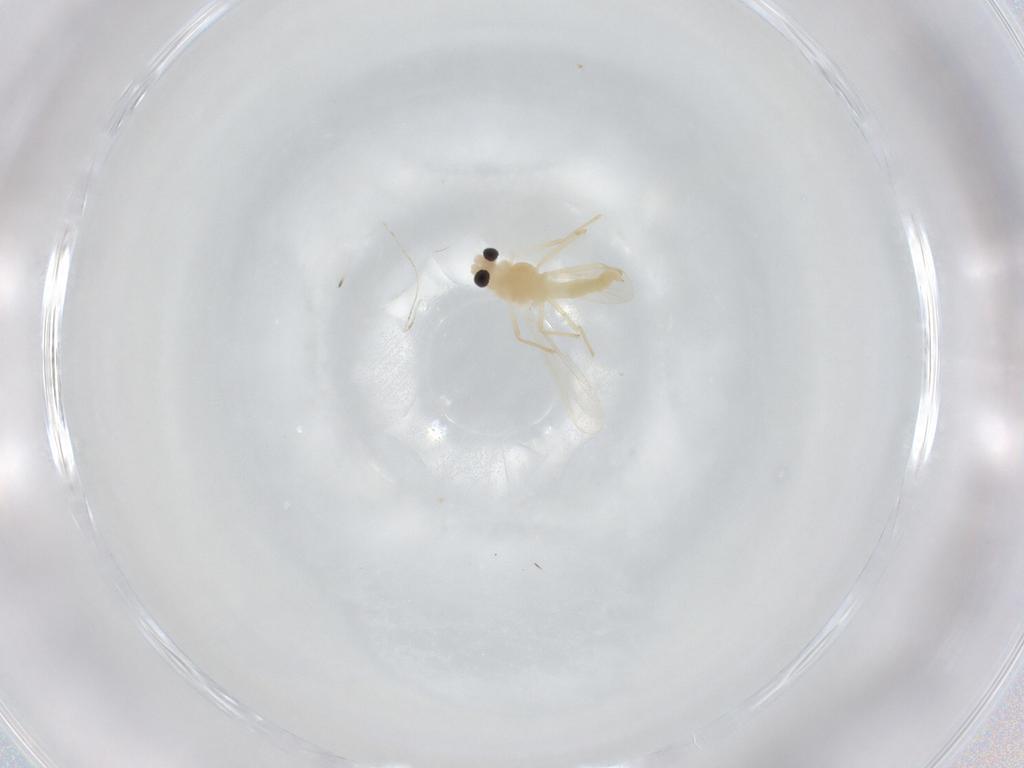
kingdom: Animalia
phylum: Arthropoda
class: Insecta
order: Diptera
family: Chironomidae
